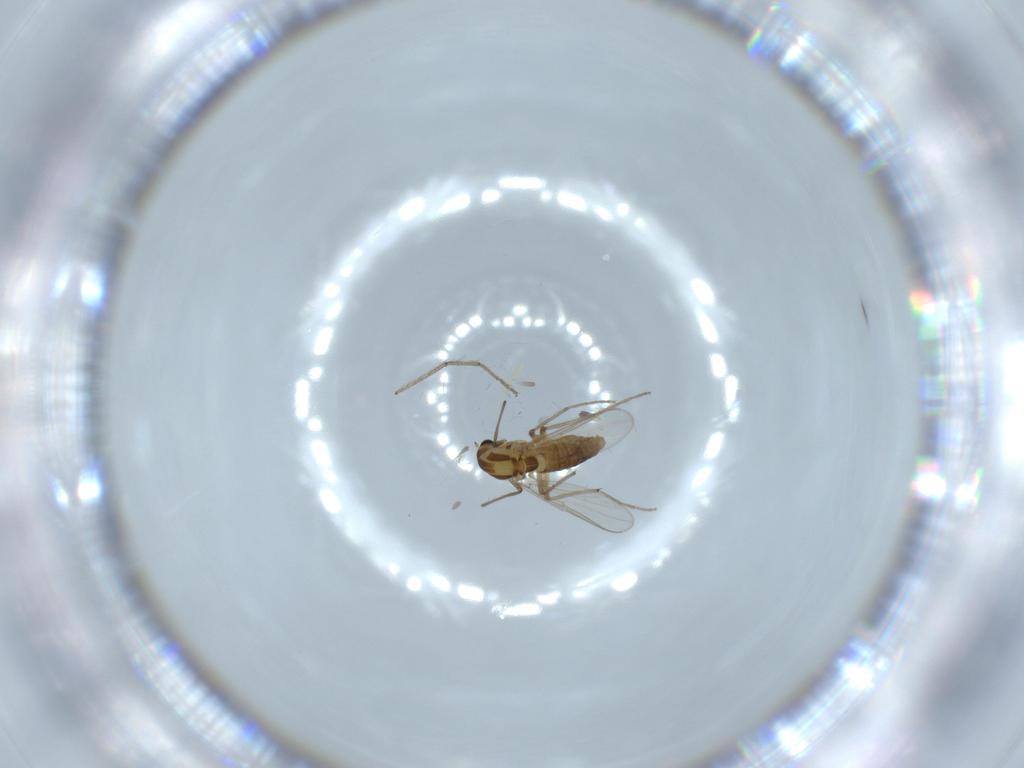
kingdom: Animalia
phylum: Arthropoda
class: Insecta
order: Diptera
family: Chironomidae
